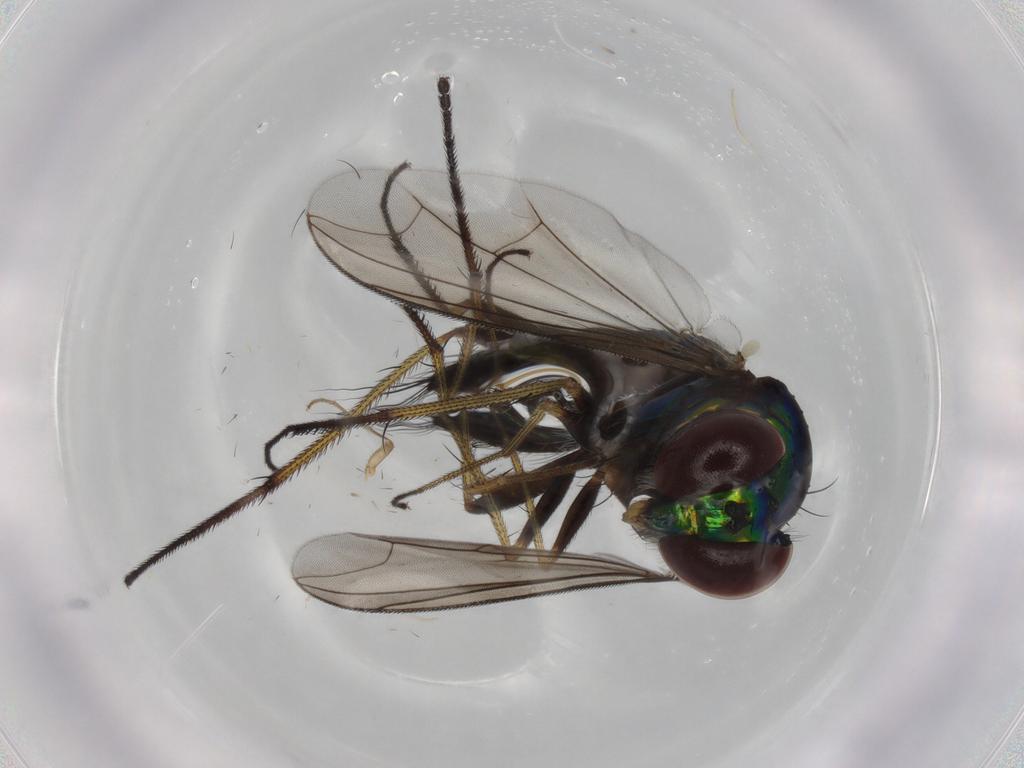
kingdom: Animalia
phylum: Arthropoda
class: Insecta
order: Diptera
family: Dolichopodidae
